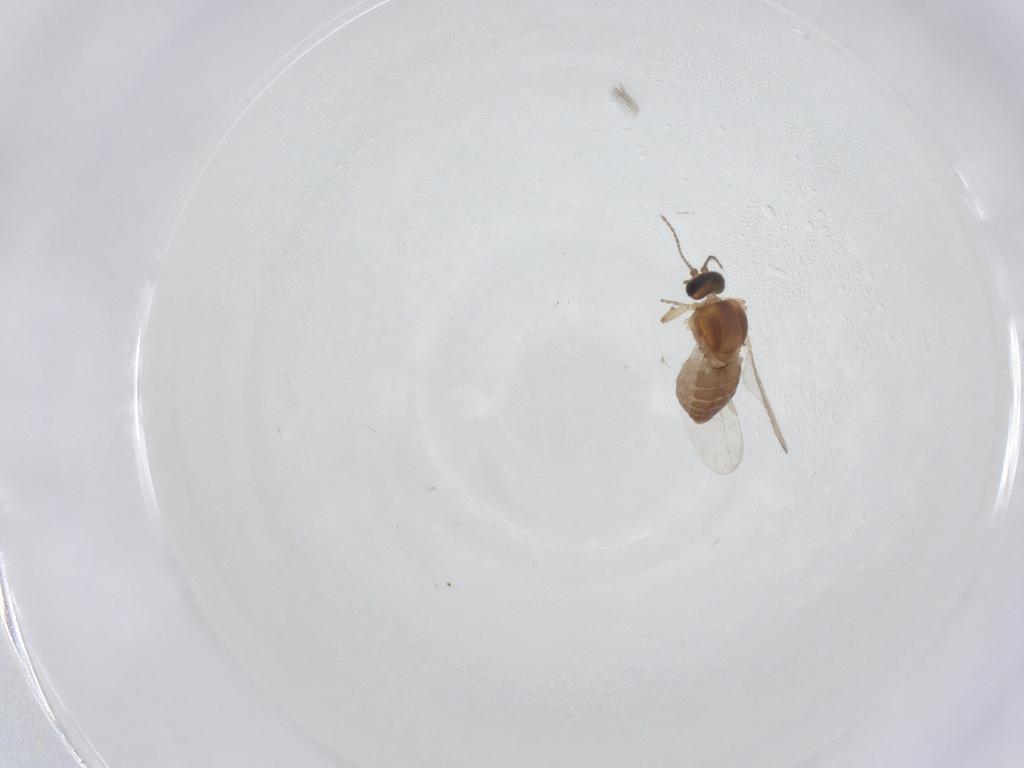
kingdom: Animalia
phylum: Arthropoda
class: Insecta
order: Diptera
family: Ceratopogonidae
